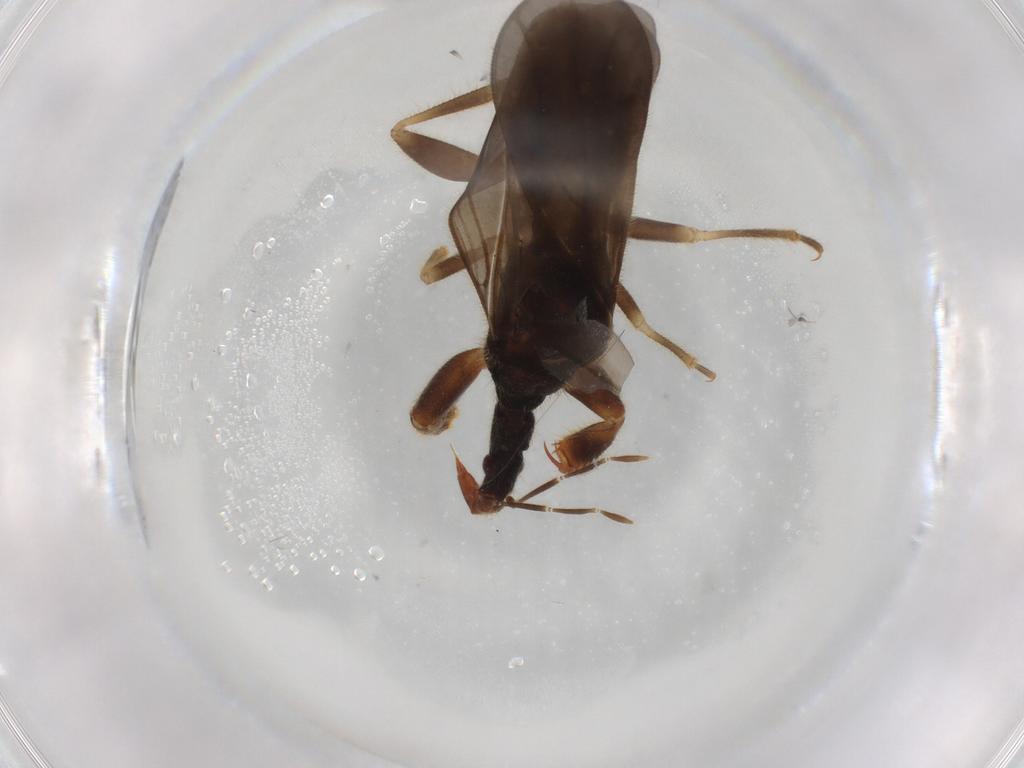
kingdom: Animalia
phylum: Arthropoda
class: Insecta
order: Hemiptera
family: Enicocephalidae
